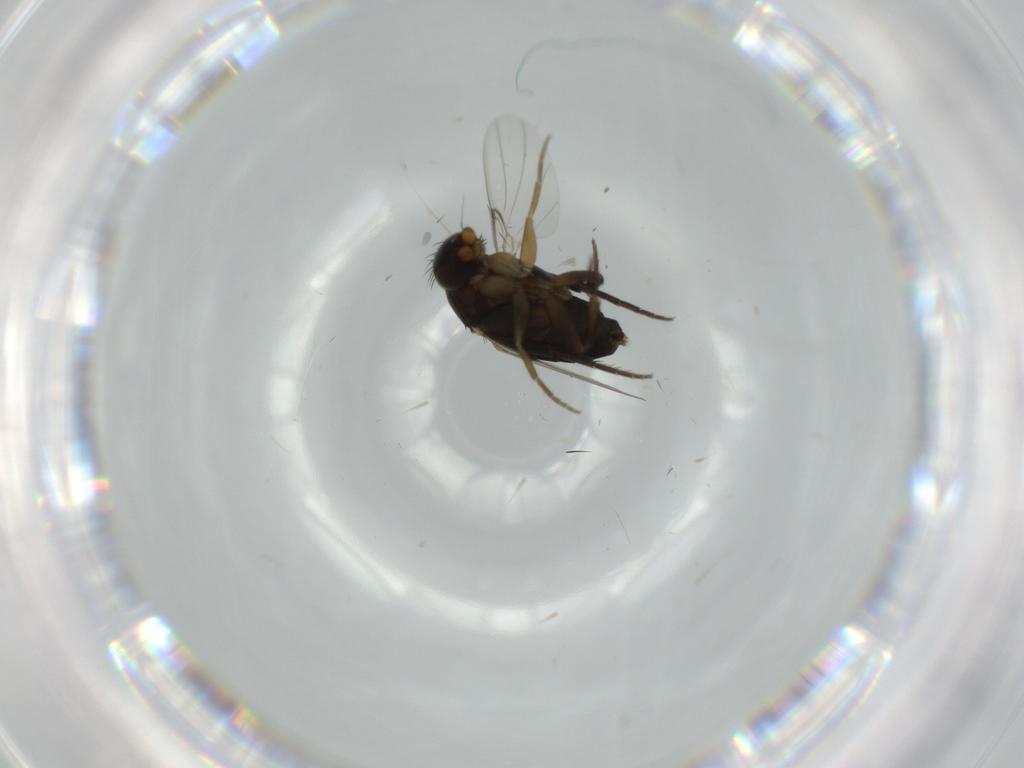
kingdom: Animalia
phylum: Arthropoda
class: Insecta
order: Diptera
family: Phoridae
